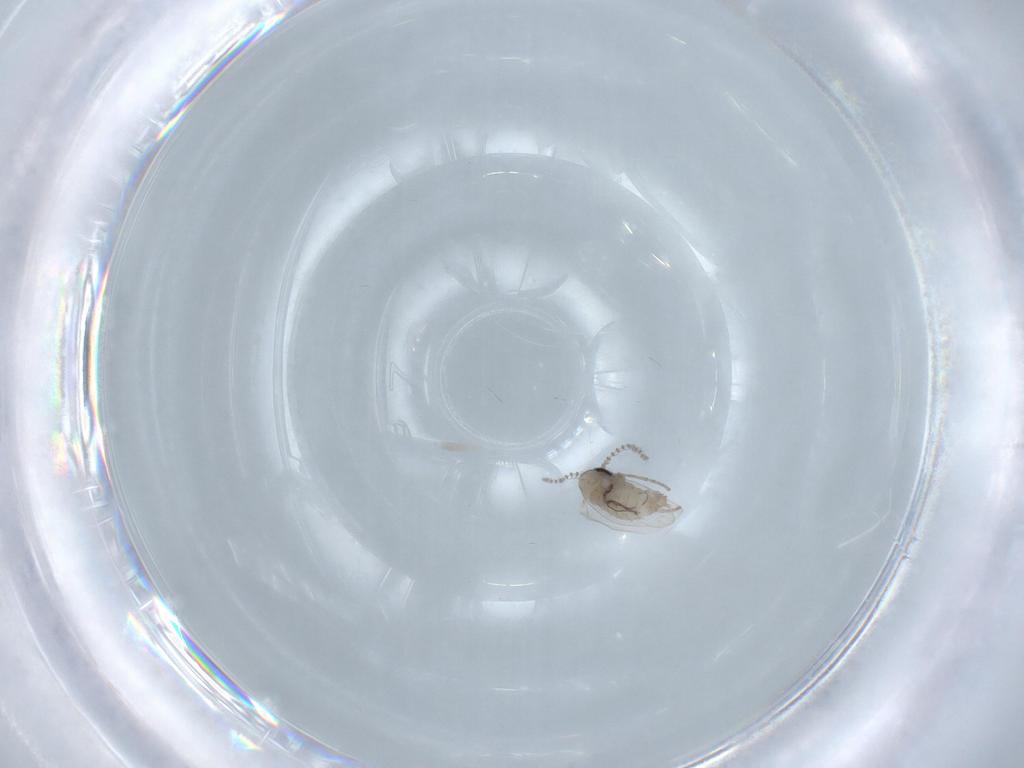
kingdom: Animalia
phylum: Arthropoda
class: Insecta
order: Diptera
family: Psychodidae
